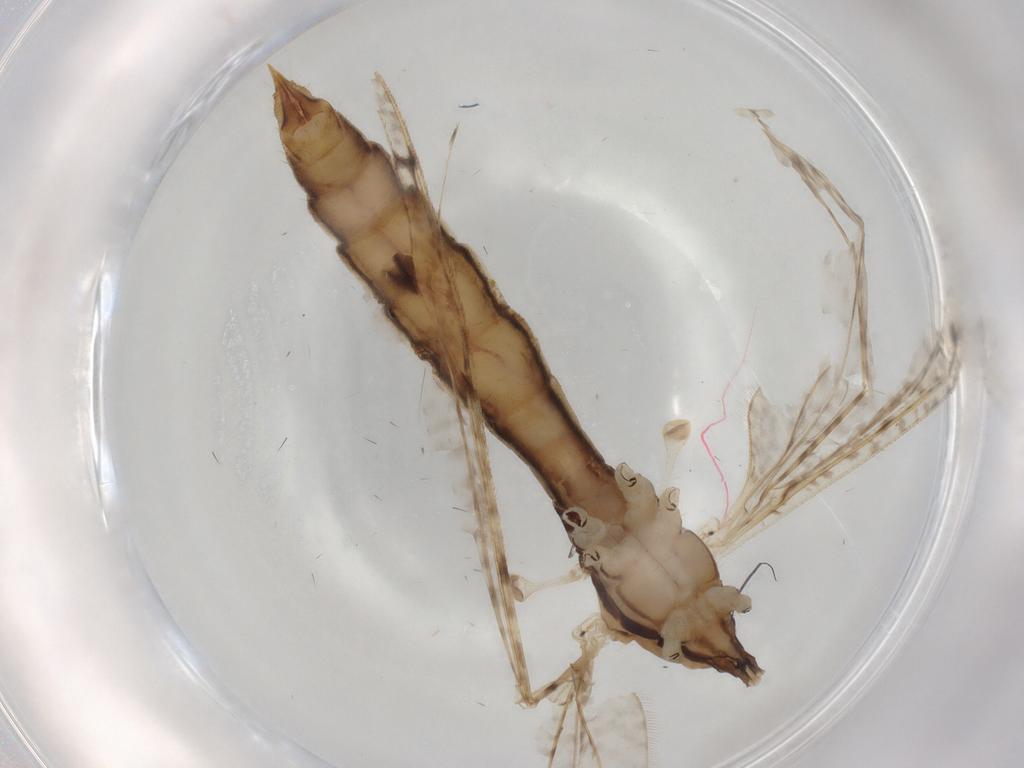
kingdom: Animalia
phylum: Arthropoda
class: Insecta
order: Diptera
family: Limoniidae
